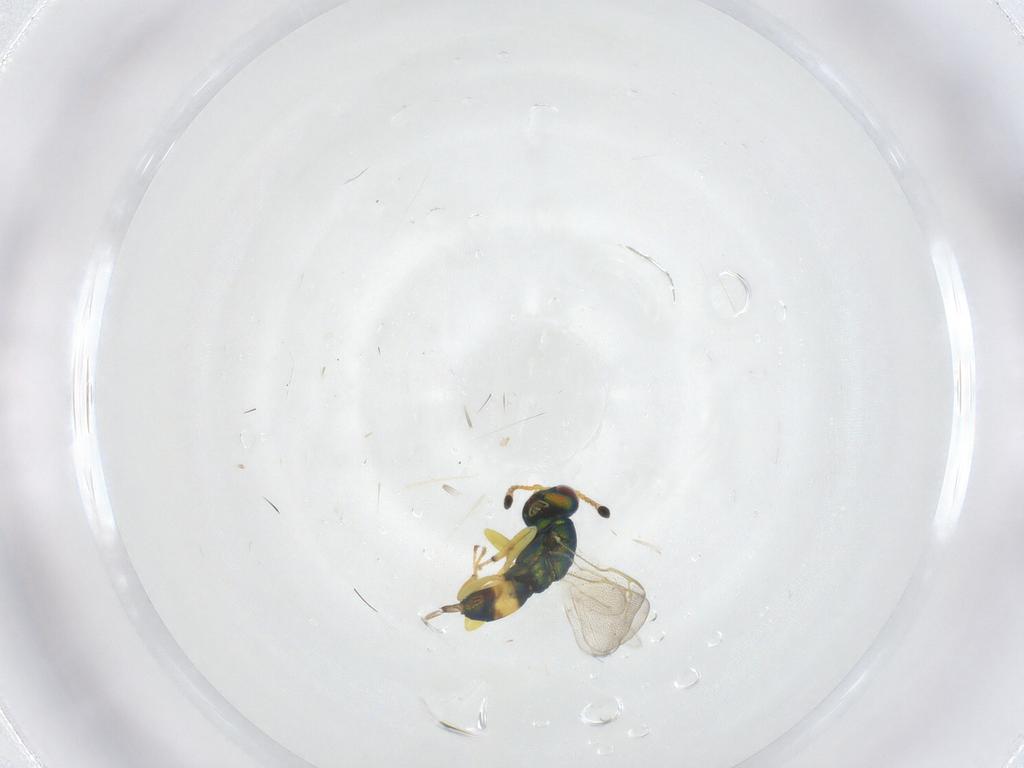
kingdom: Animalia
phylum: Arthropoda
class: Insecta
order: Hymenoptera
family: Pteromalidae
